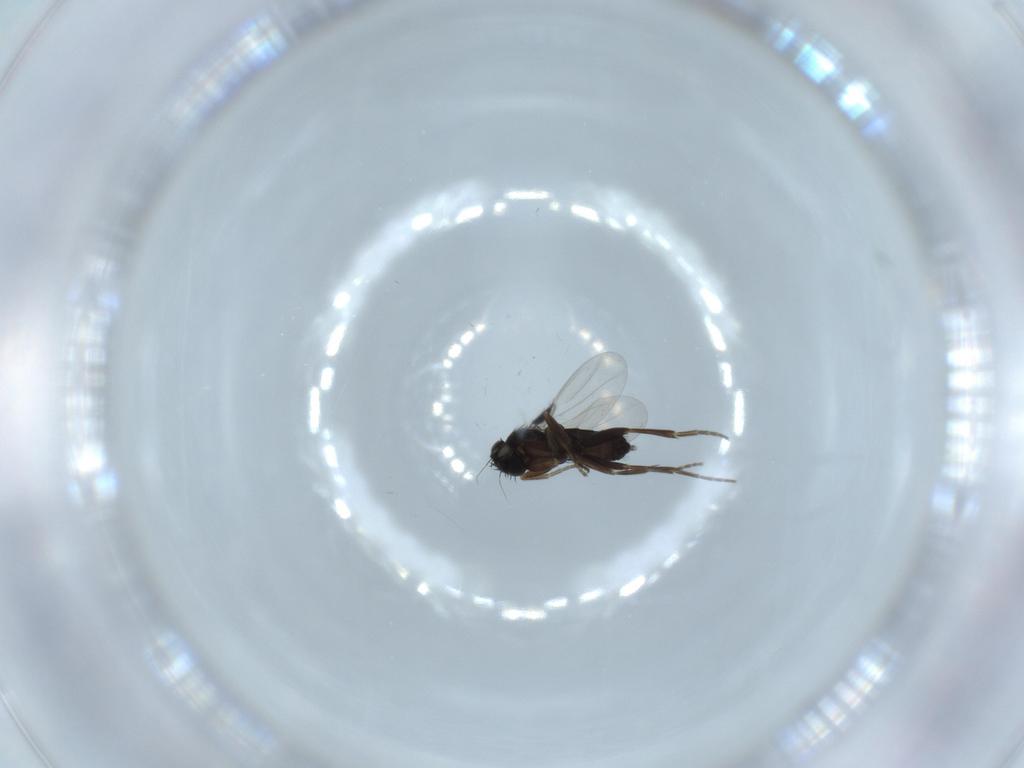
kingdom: Animalia
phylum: Arthropoda
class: Insecta
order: Diptera
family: Phoridae
